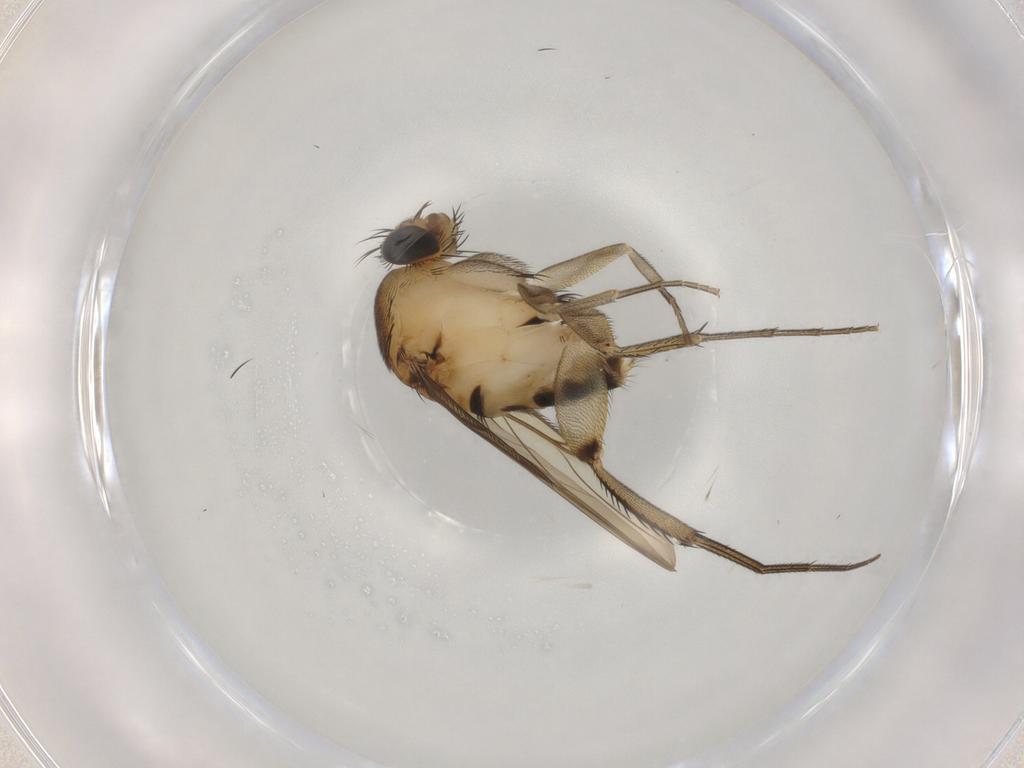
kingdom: Animalia
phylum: Arthropoda
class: Insecta
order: Diptera
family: Phoridae
